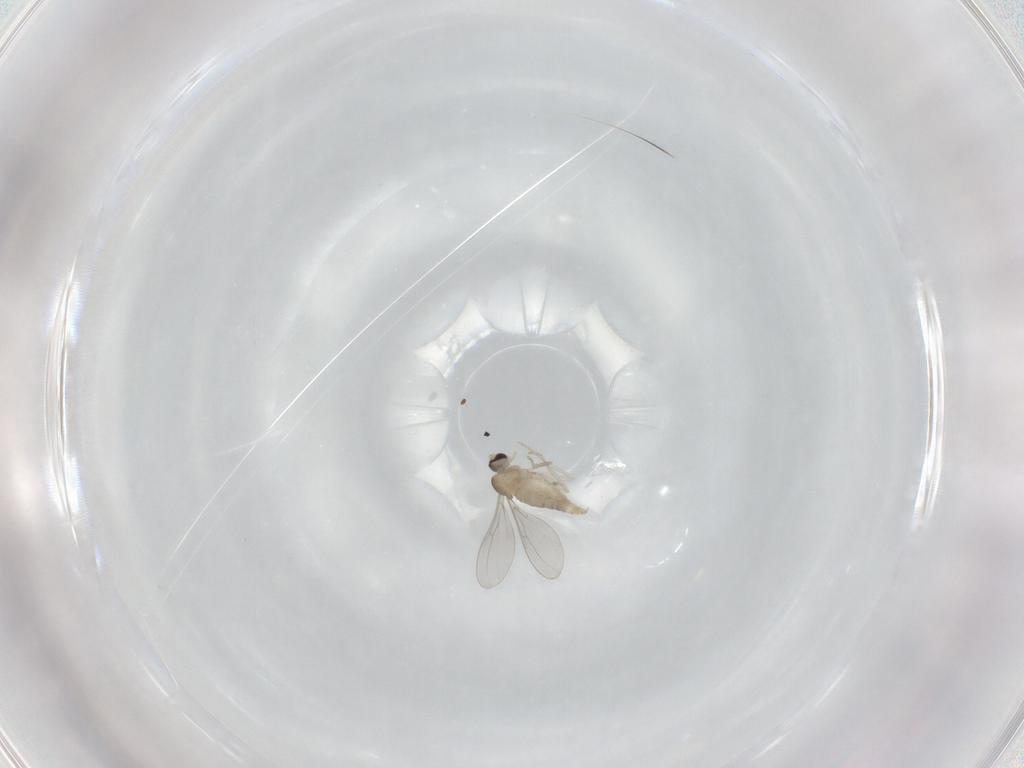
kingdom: Animalia
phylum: Arthropoda
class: Insecta
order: Diptera
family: Cecidomyiidae
